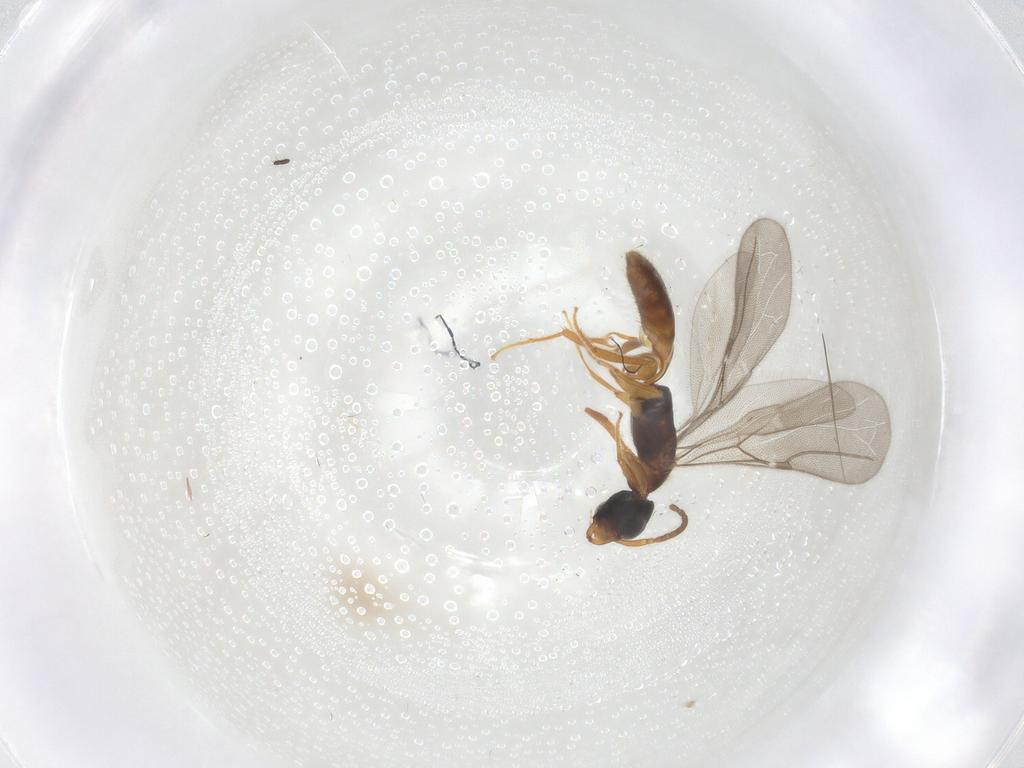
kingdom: Animalia
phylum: Arthropoda
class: Insecta
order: Hymenoptera
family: Bethylidae
